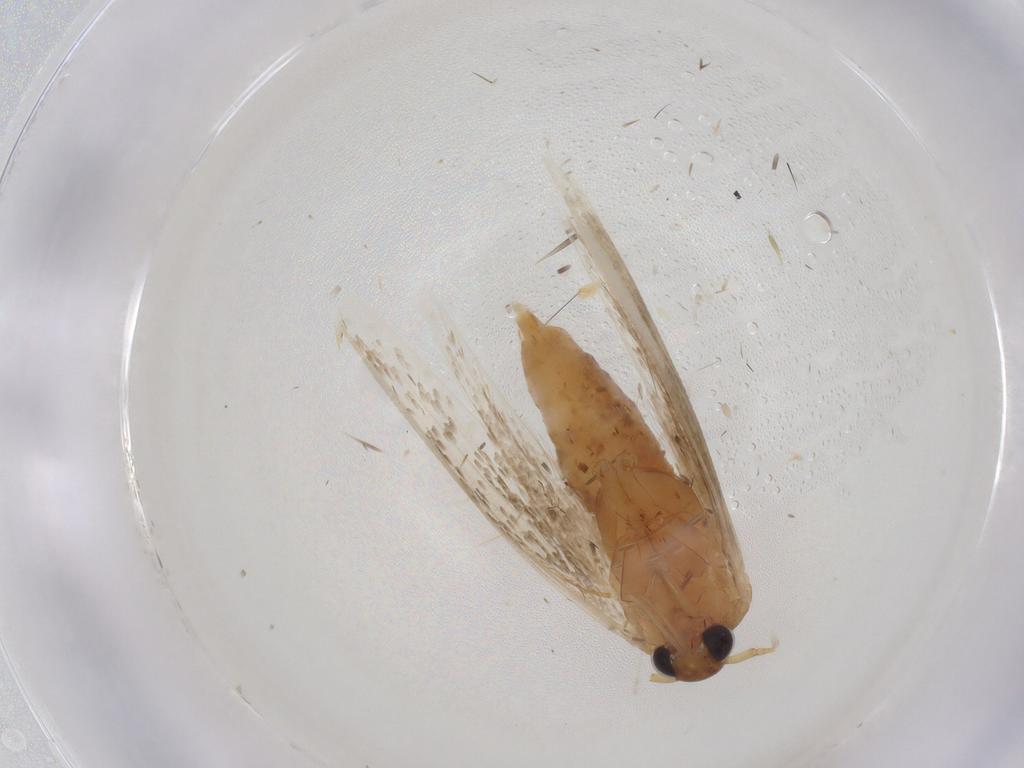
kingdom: Animalia
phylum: Arthropoda
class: Insecta
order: Lepidoptera
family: Blastobasidae
